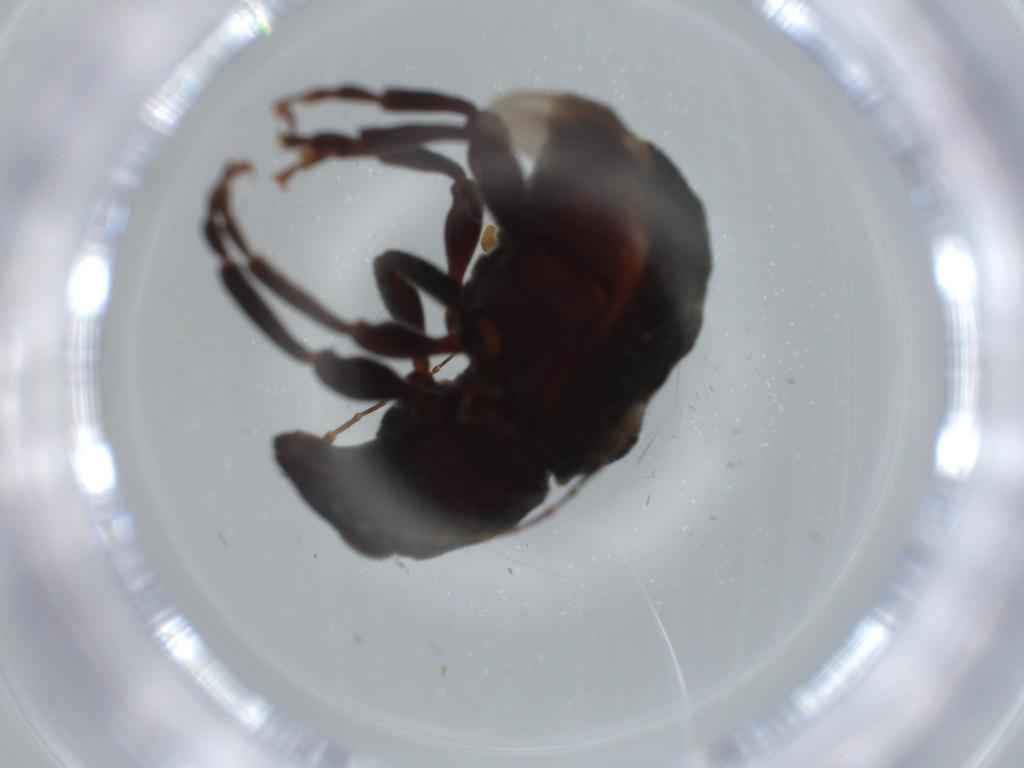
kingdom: Animalia
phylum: Arthropoda
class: Insecta
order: Coleoptera
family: Anthribidae
